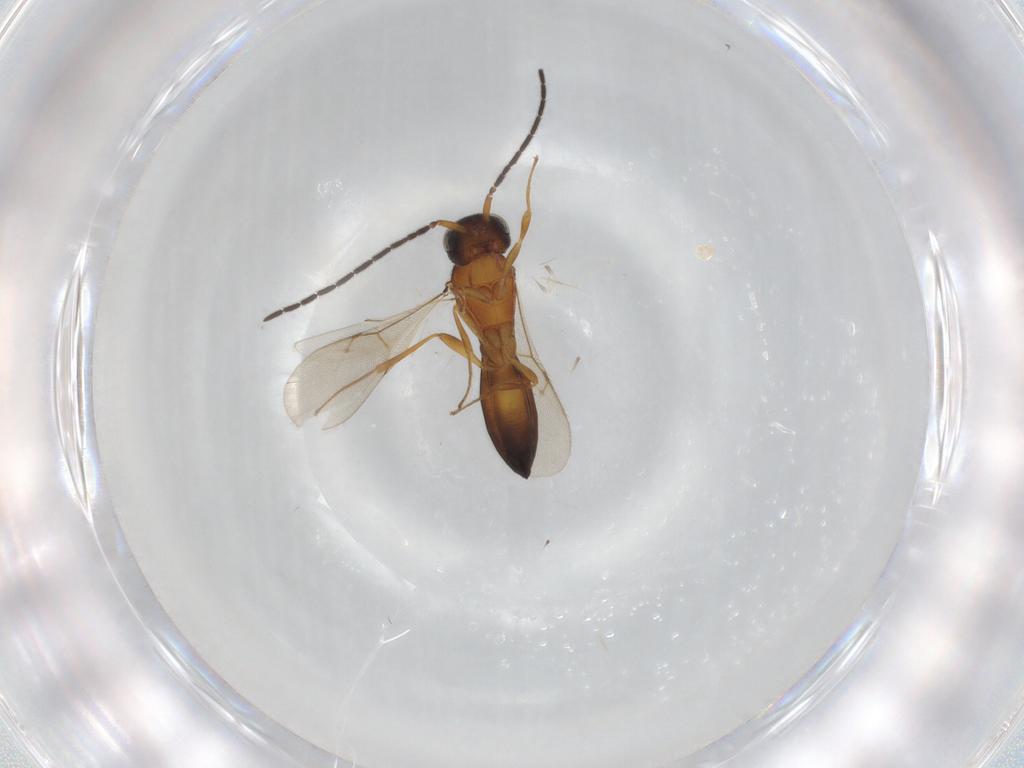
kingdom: Animalia
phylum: Arthropoda
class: Insecta
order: Hymenoptera
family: Scelionidae
